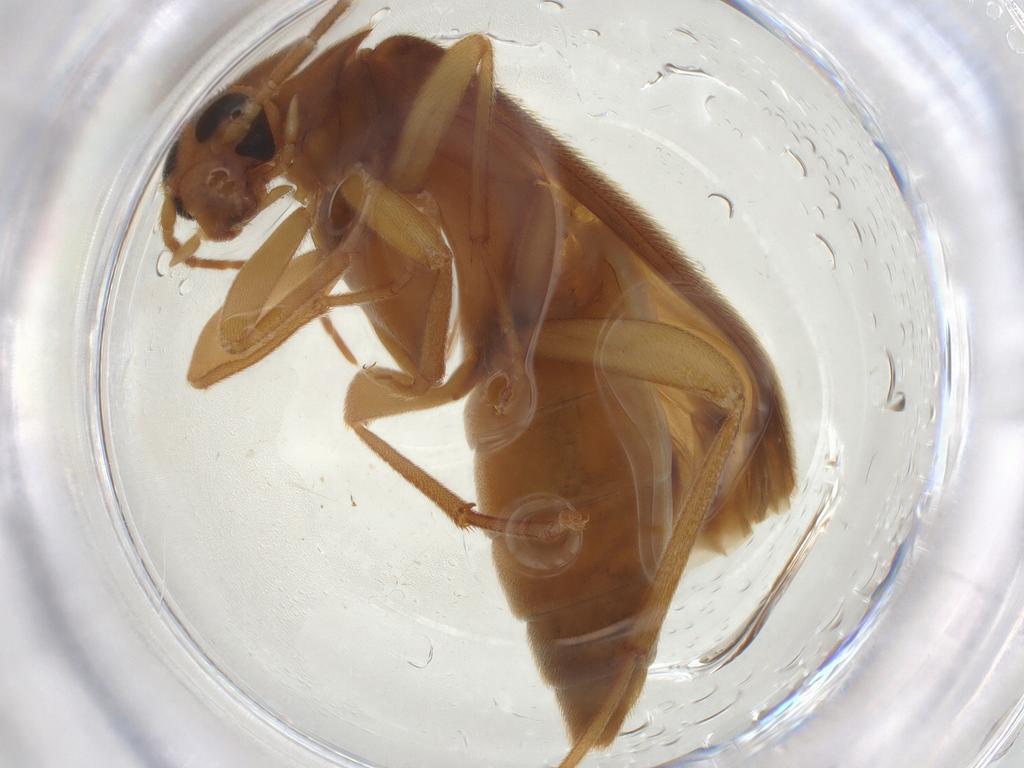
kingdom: Animalia
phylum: Arthropoda
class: Insecta
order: Coleoptera
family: Scraptiidae
